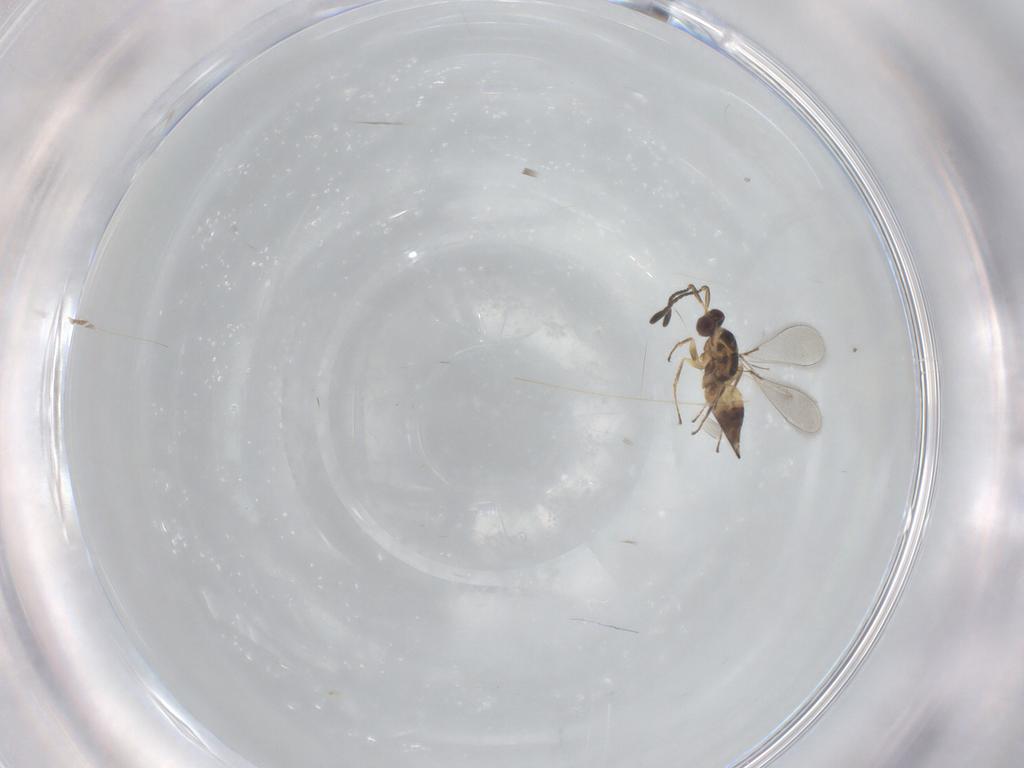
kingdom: Animalia
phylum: Arthropoda
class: Insecta
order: Hymenoptera
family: Mymaridae
